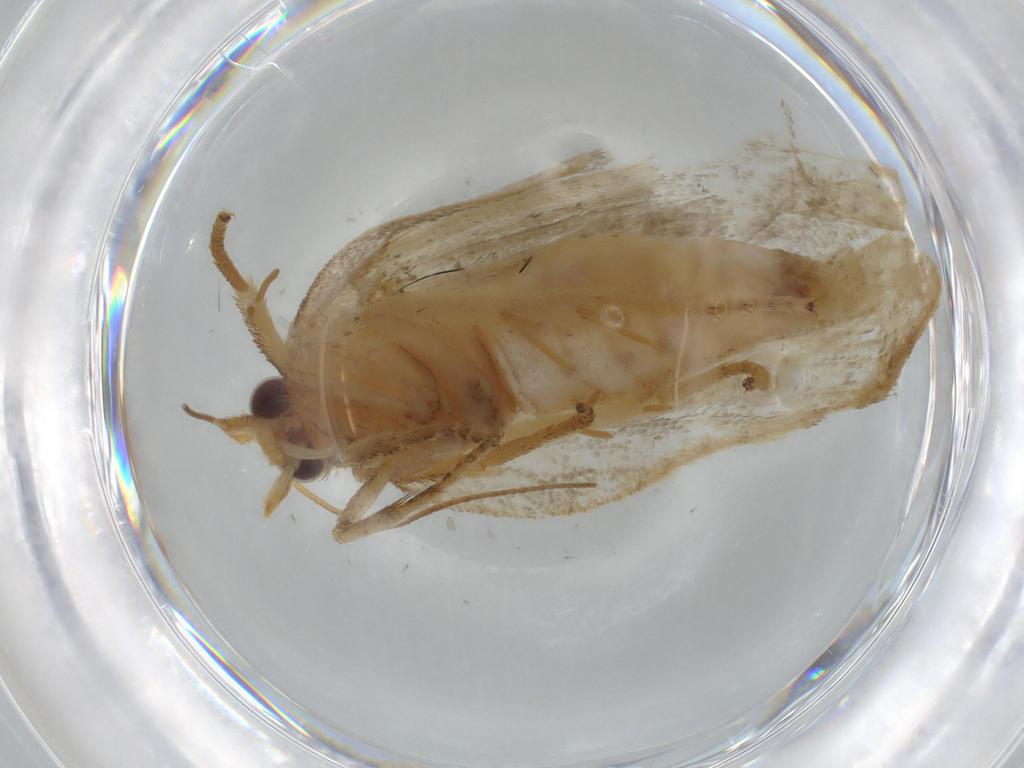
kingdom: Animalia
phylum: Arthropoda
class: Insecta
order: Lepidoptera
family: Tortricidae
